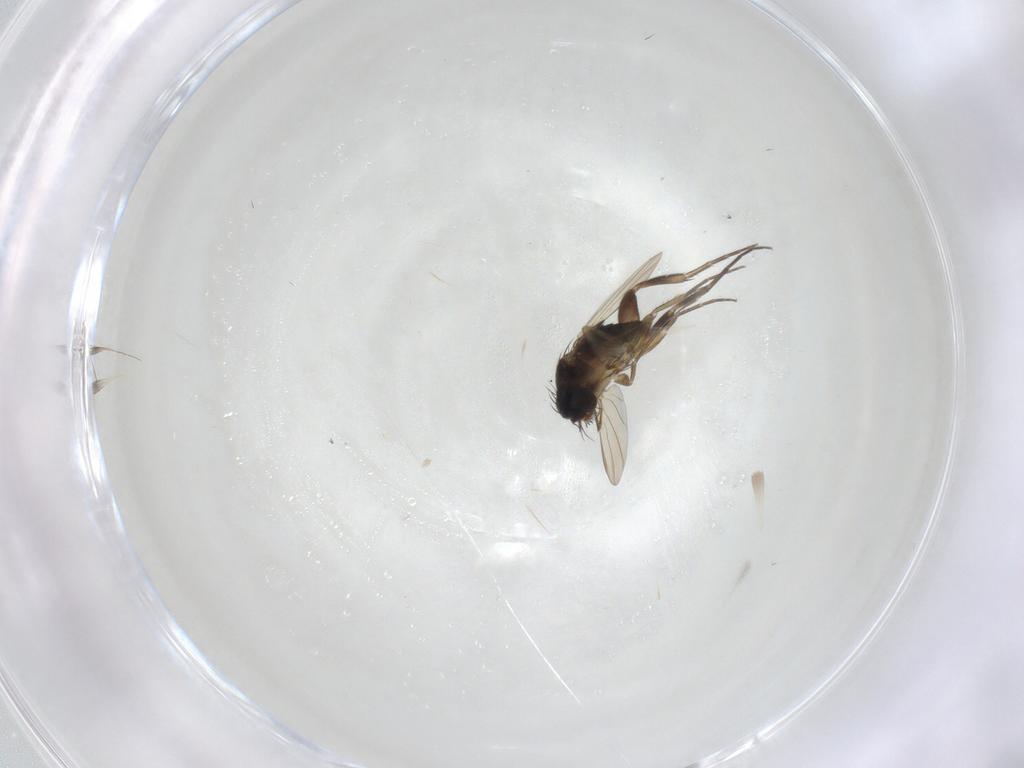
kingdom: Animalia
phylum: Arthropoda
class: Insecta
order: Diptera
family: Phoridae
